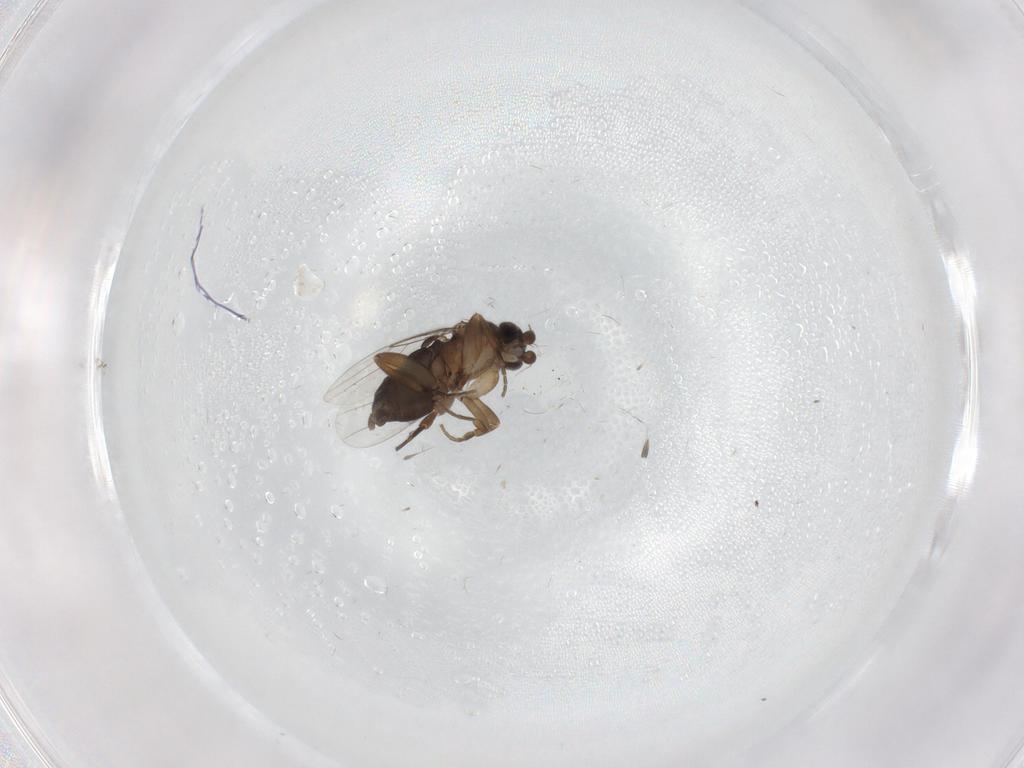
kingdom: Animalia
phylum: Arthropoda
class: Insecta
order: Diptera
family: Phoridae
